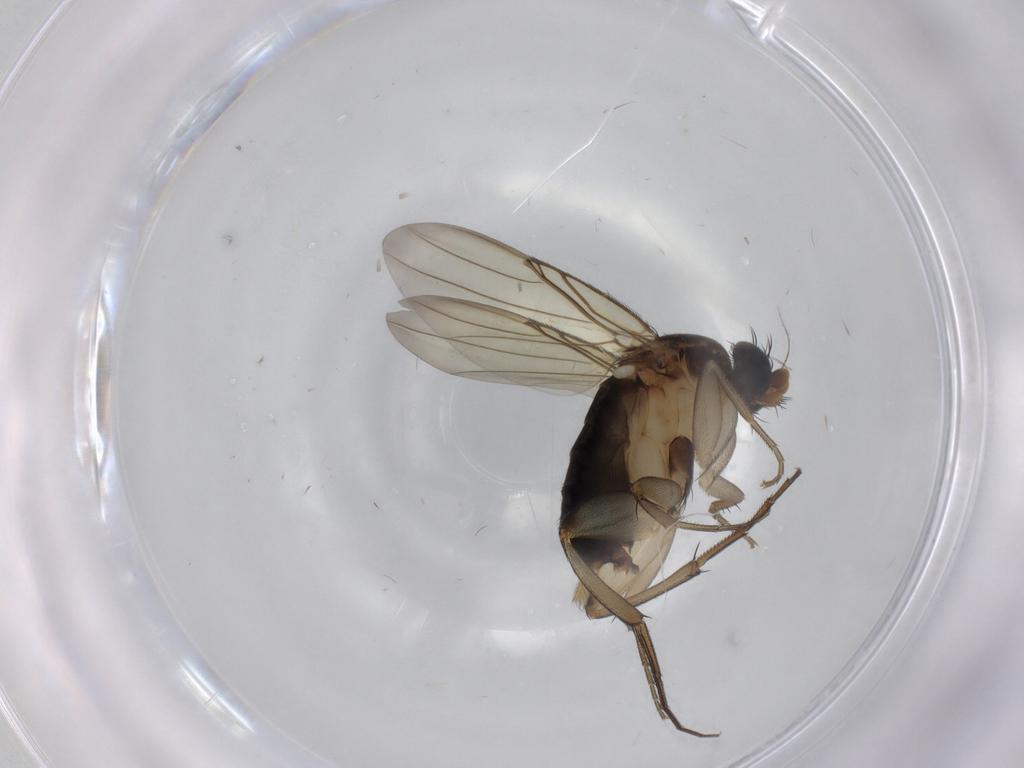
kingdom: Animalia
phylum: Arthropoda
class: Insecta
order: Diptera
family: Phoridae
